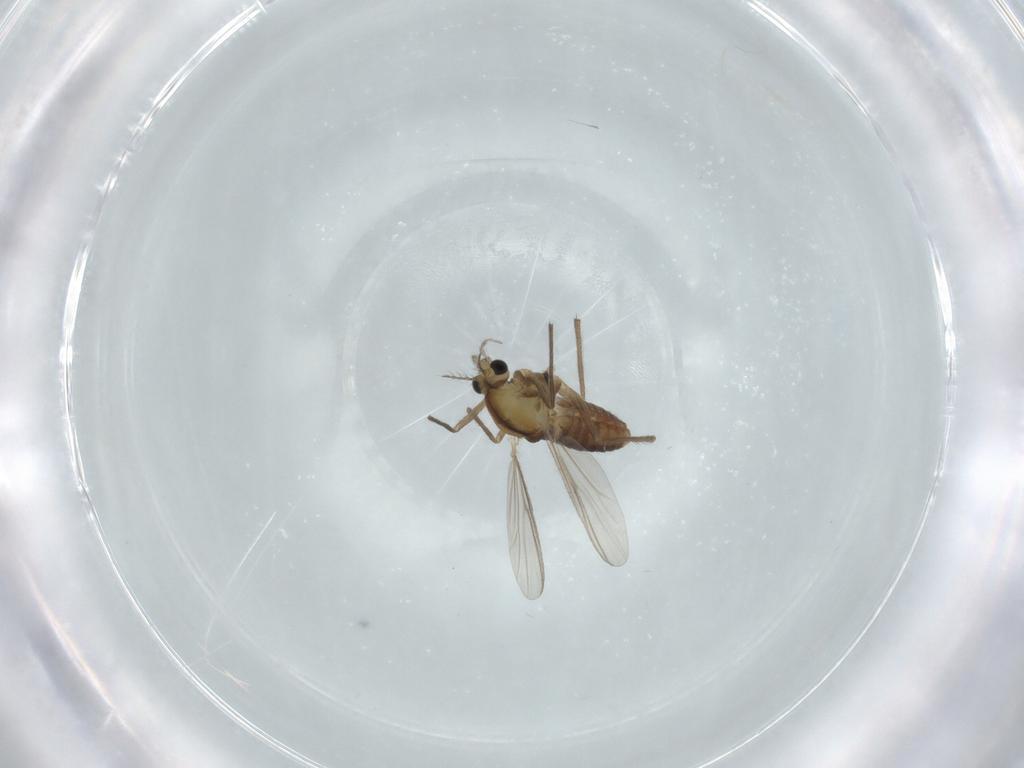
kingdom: Animalia
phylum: Arthropoda
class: Insecta
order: Diptera
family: Chironomidae
